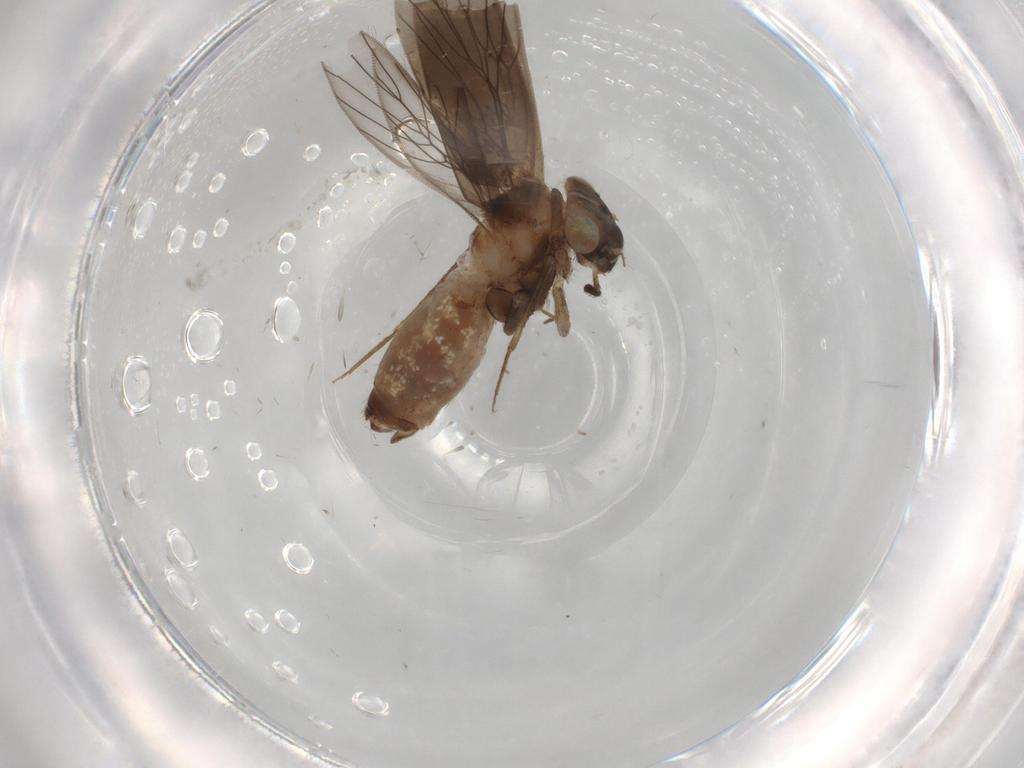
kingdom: Animalia
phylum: Arthropoda
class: Insecta
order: Psocodea
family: Lepidopsocidae
